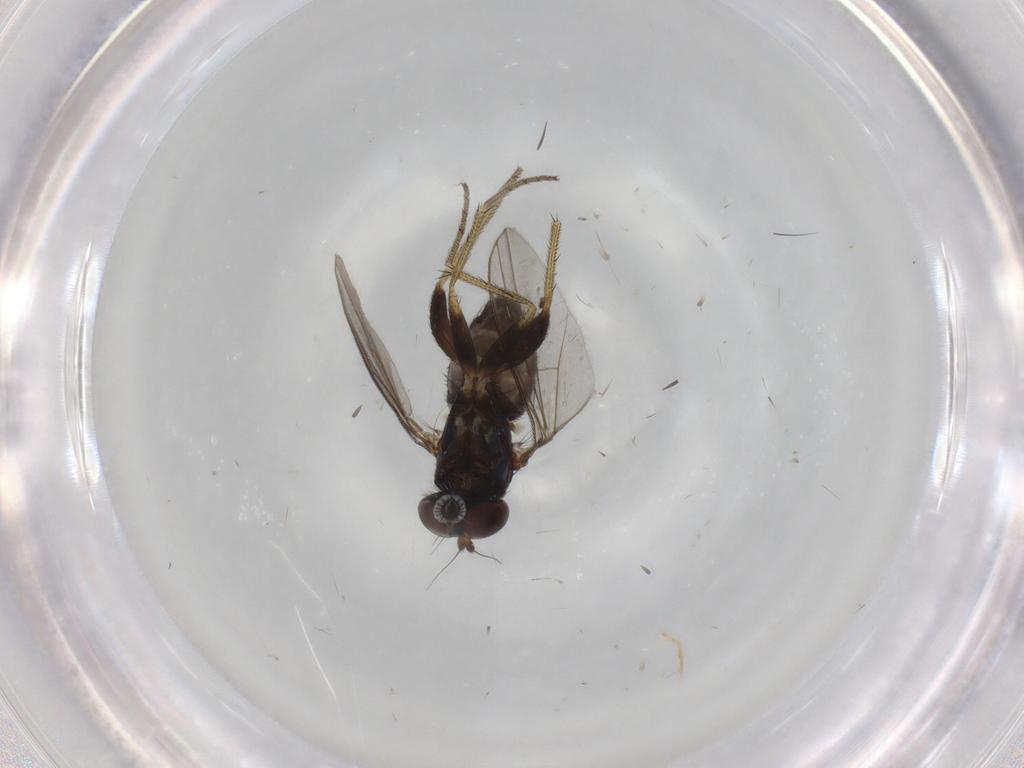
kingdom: Animalia
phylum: Arthropoda
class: Insecta
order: Diptera
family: Dolichopodidae
